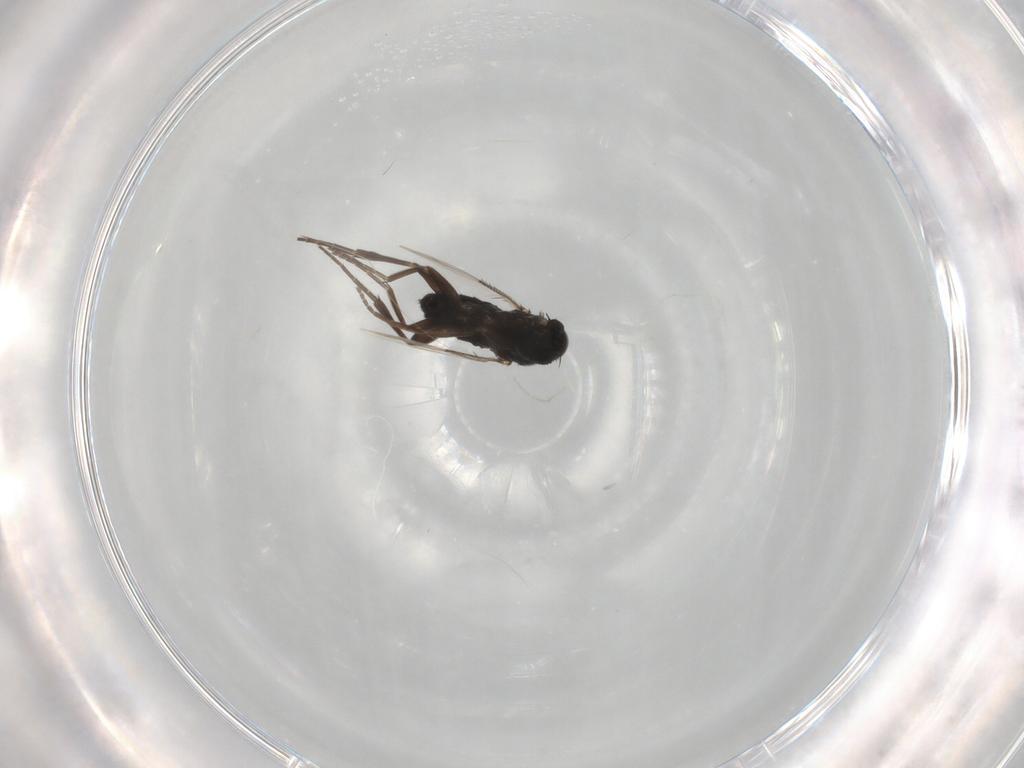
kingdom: Animalia
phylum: Arthropoda
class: Insecta
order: Diptera
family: Phoridae
